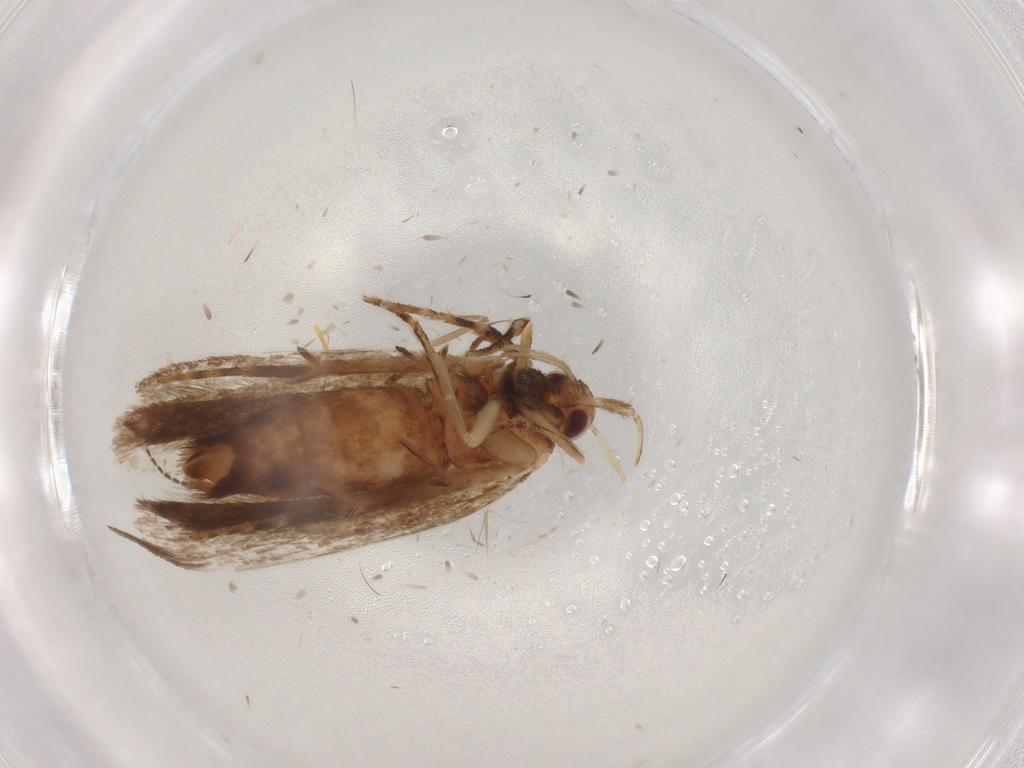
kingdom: Animalia
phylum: Arthropoda
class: Insecta
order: Lepidoptera
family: Gelechiidae
